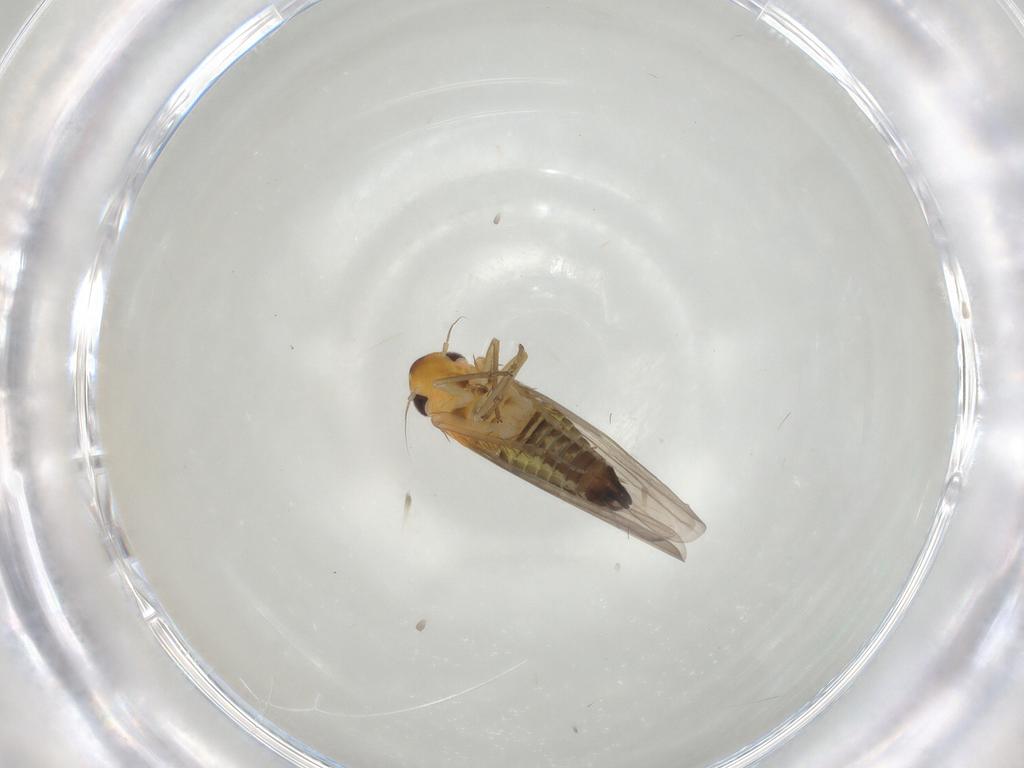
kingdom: Animalia
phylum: Arthropoda
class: Insecta
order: Hemiptera
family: Cicadellidae
